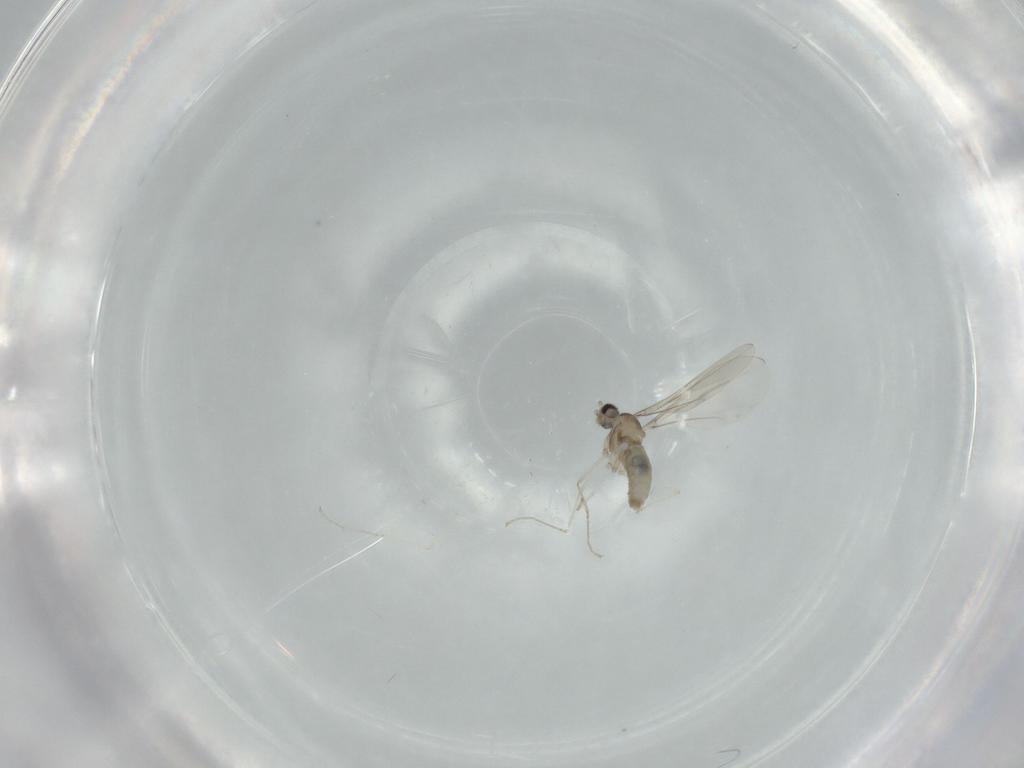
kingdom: Animalia
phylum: Arthropoda
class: Insecta
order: Diptera
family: Cecidomyiidae
